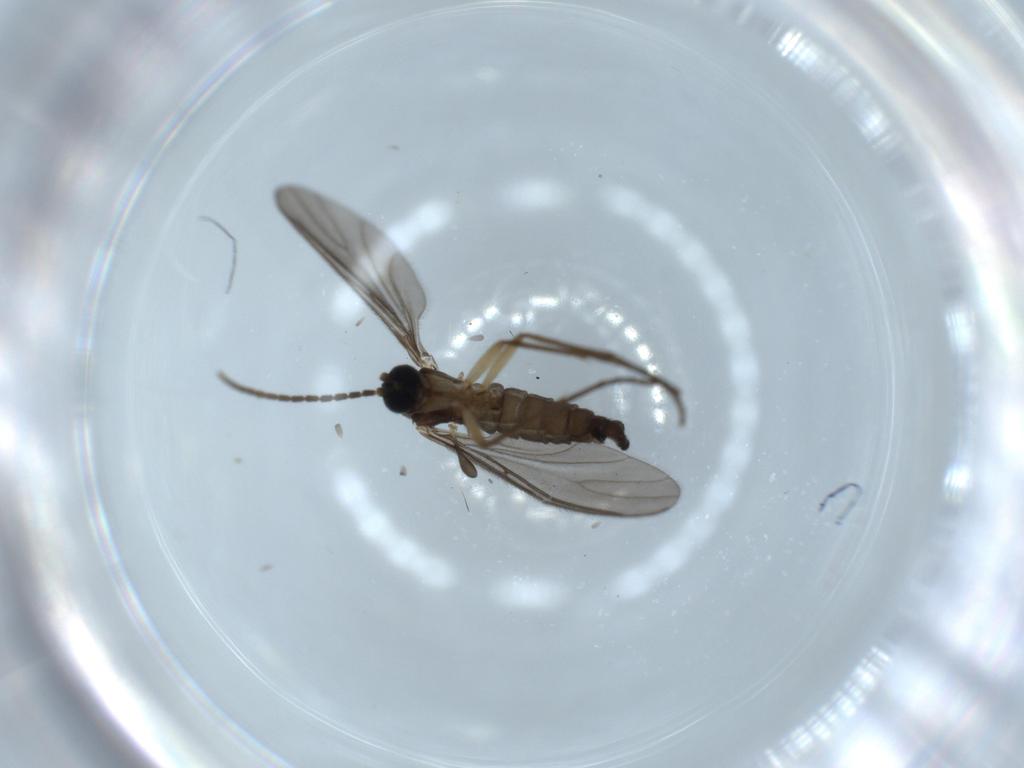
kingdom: Animalia
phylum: Arthropoda
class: Insecta
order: Diptera
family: Sciaridae
